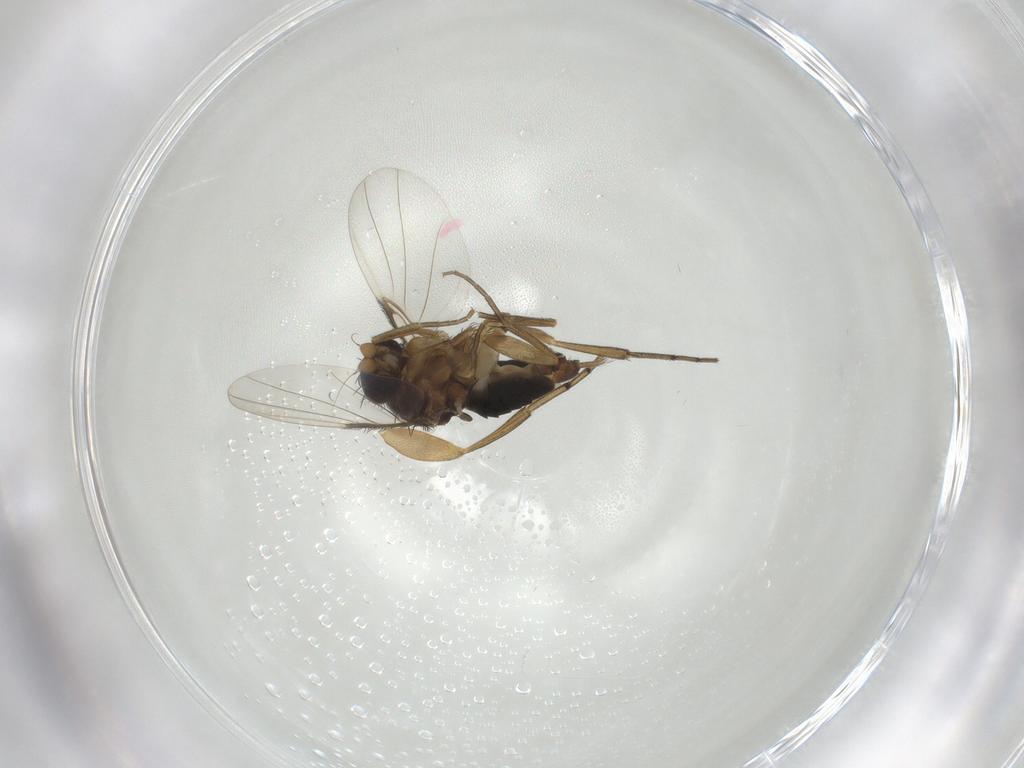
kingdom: Animalia
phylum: Arthropoda
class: Insecta
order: Diptera
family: Phoridae
